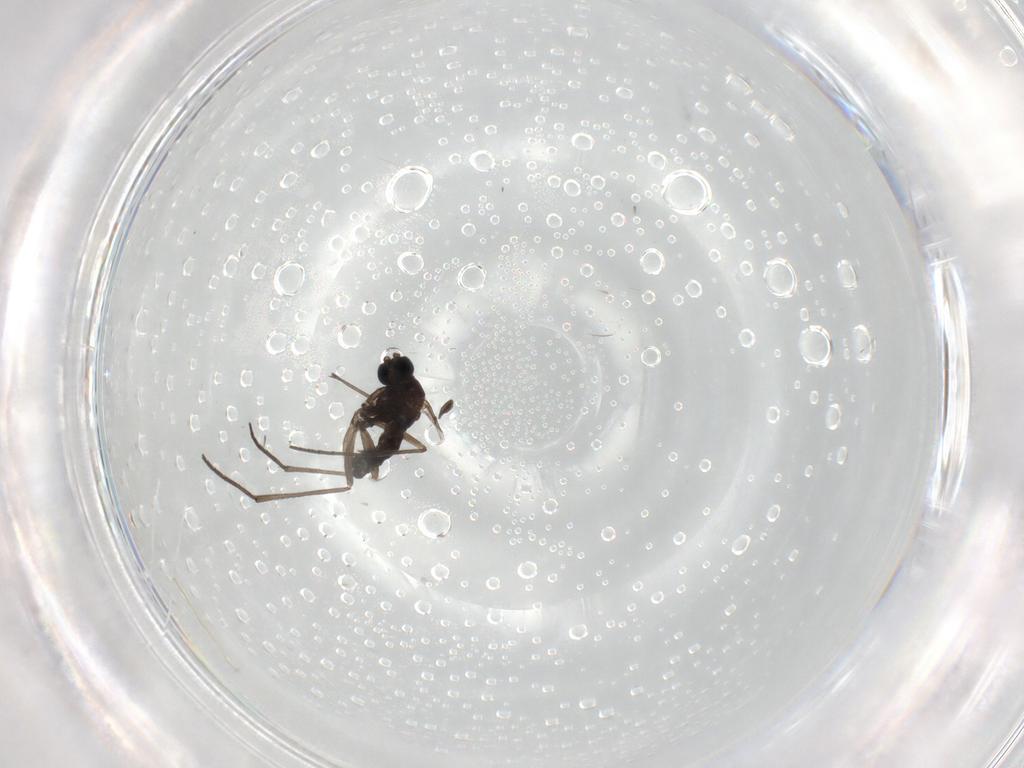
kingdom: Animalia
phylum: Arthropoda
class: Insecta
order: Diptera
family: Sciaridae
